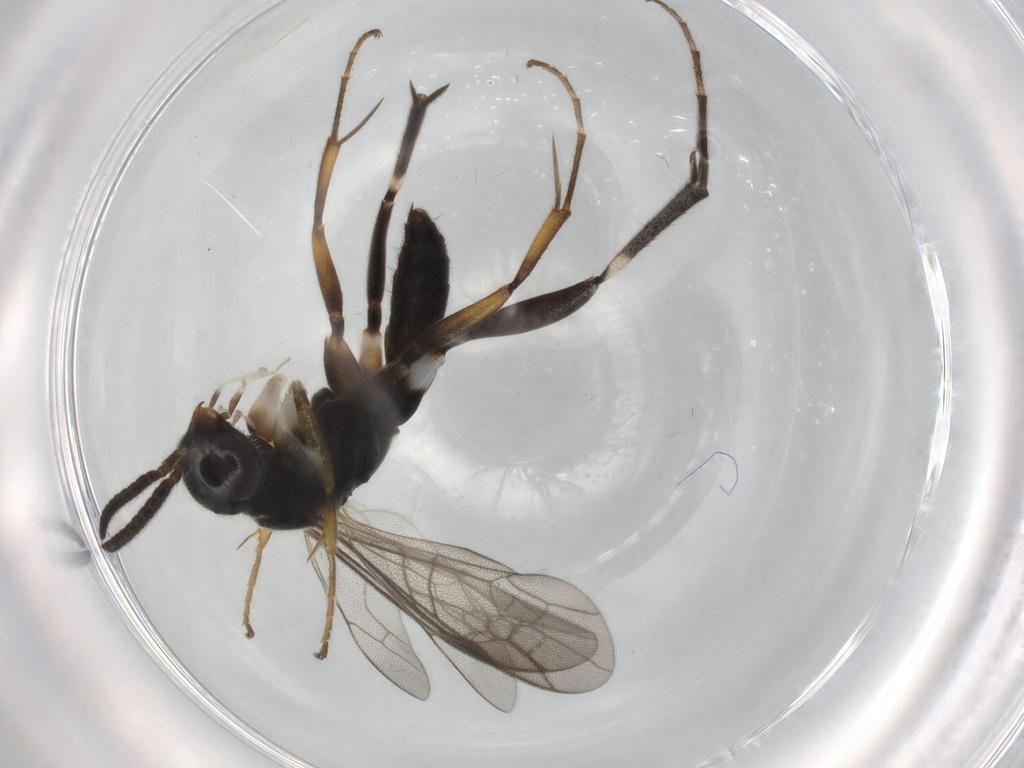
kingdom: Animalia
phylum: Arthropoda
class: Insecta
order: Hymenoptera
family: Pompilidae
